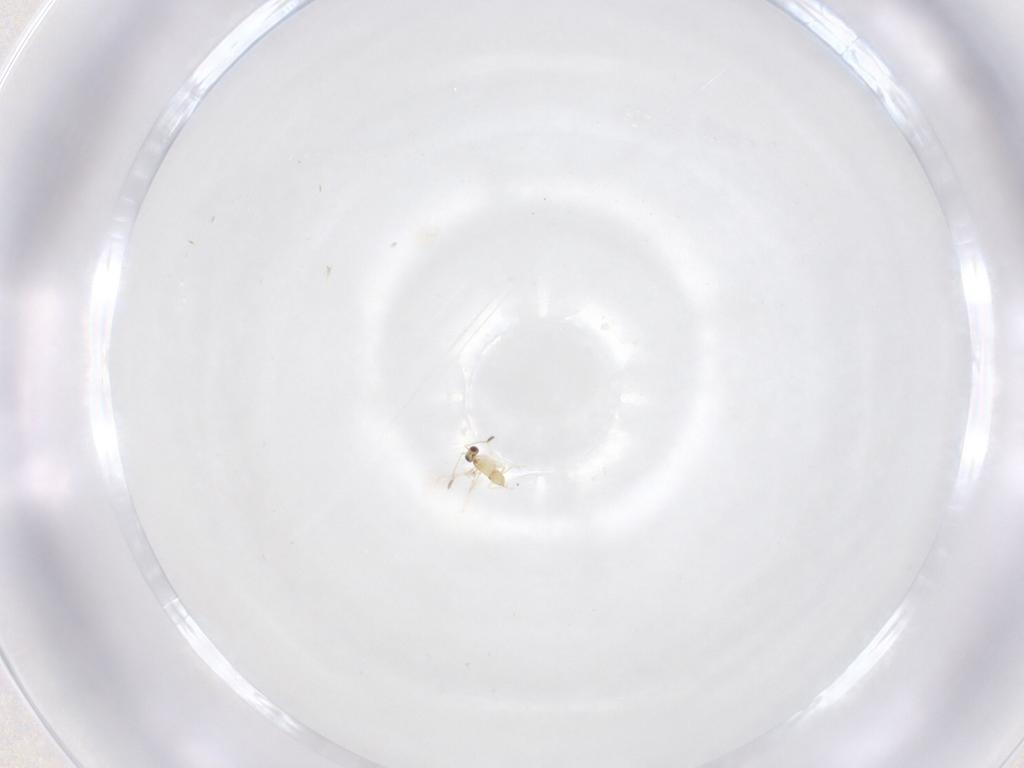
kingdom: Animalia
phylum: Arthropoda
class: Insecta
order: Hymenoptera
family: Mymaridae
